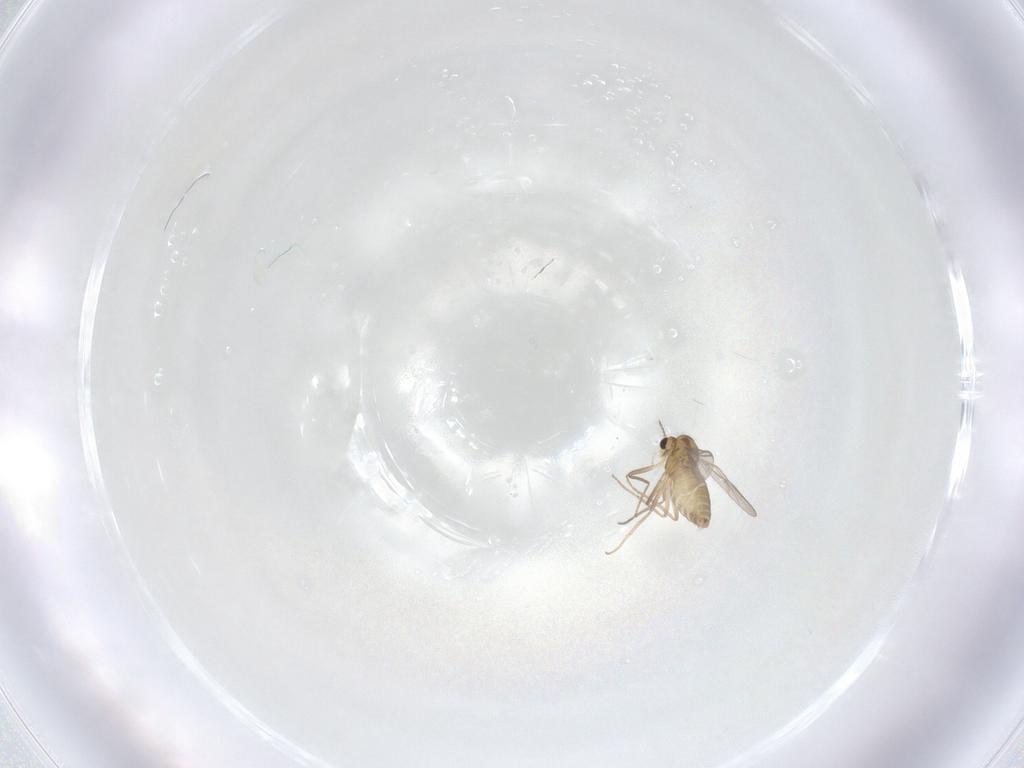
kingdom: Animalia
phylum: Arthropoda
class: Insecta
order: Diptera
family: Chironomidae
